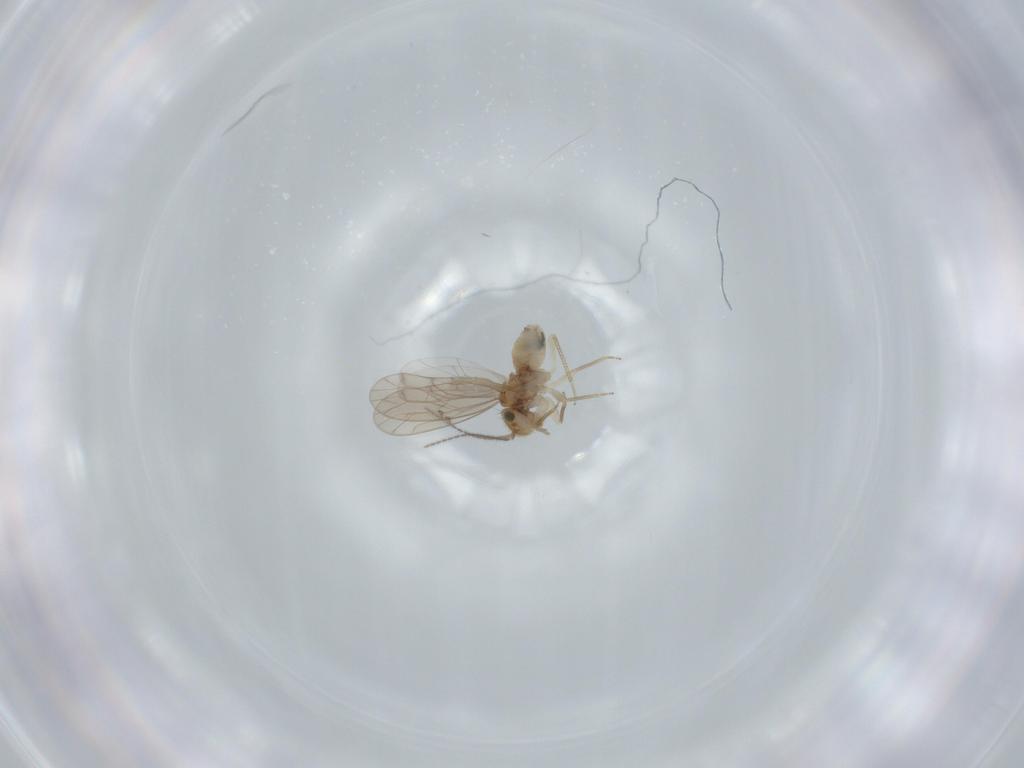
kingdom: Animalia
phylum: Arthropoda
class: Insecta
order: Psocodea
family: Ectopsocidae
